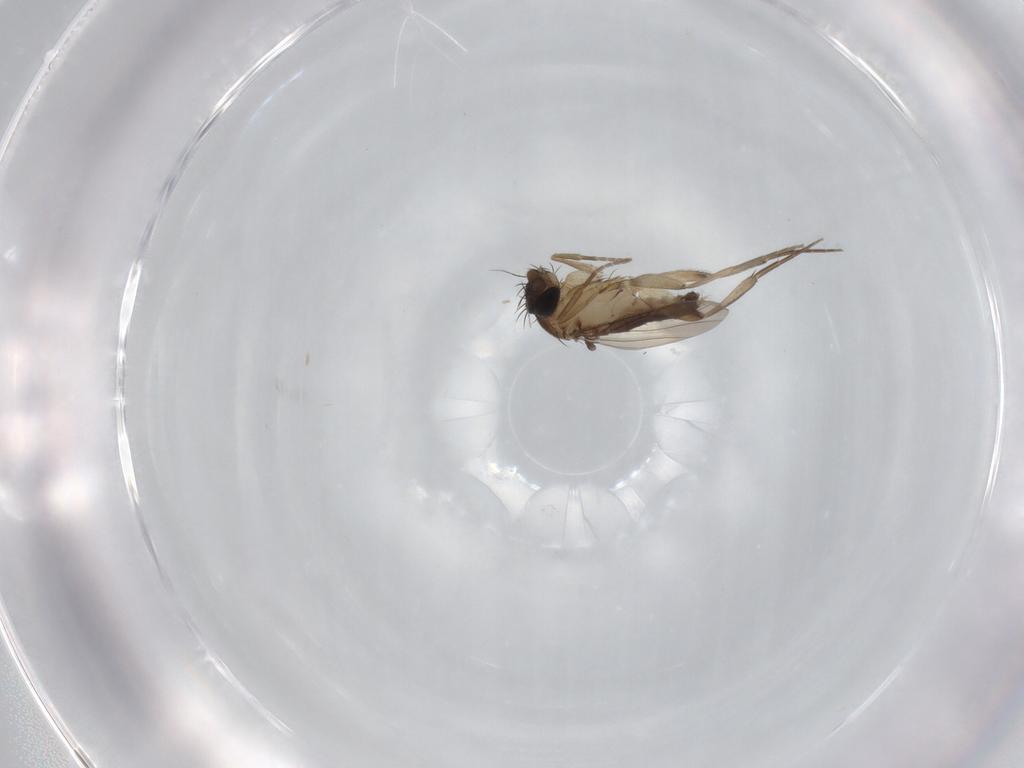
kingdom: Animalia
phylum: Arthropoda
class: Insecta
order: Diptera
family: Phoridae
